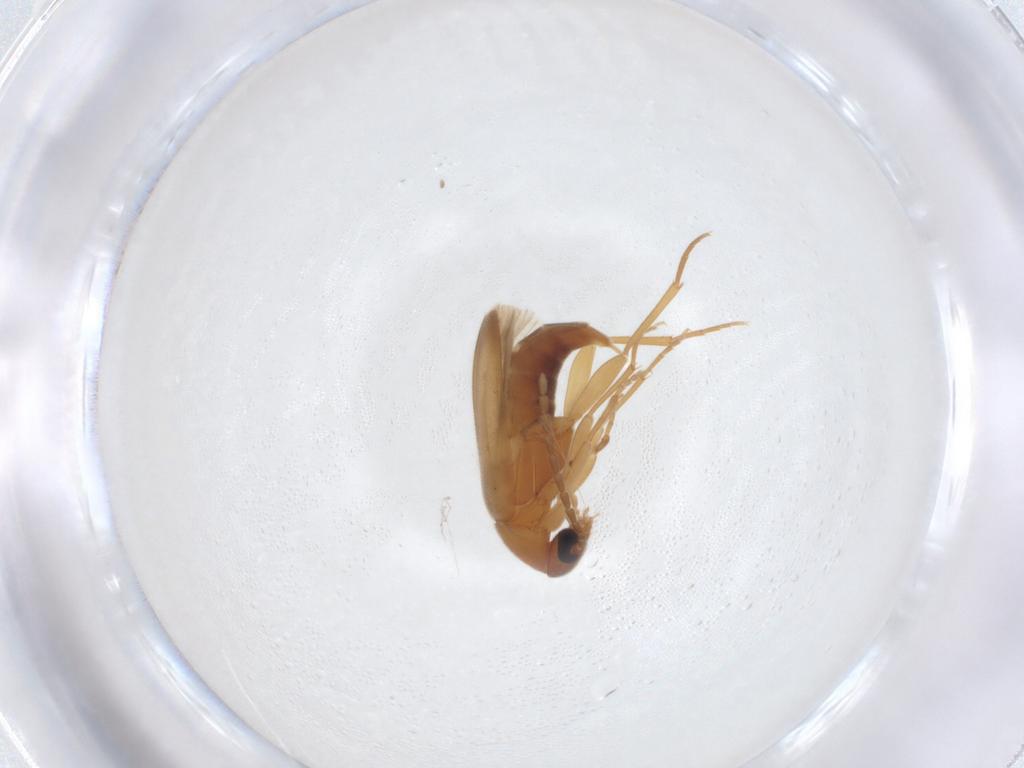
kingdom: Animalia
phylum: Arthropoda
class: Insecta
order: Coleoptera
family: Scraptiidae
